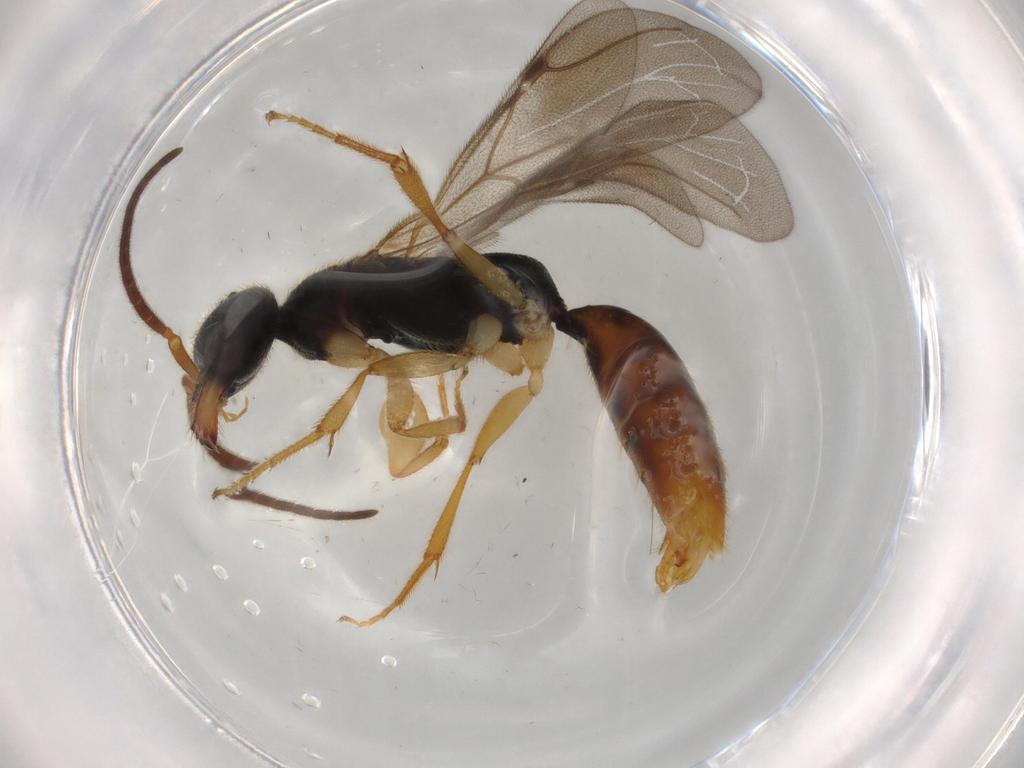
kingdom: Animalia
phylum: Arthropoda
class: Insecta
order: Hymenoptera
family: Bethylidae
